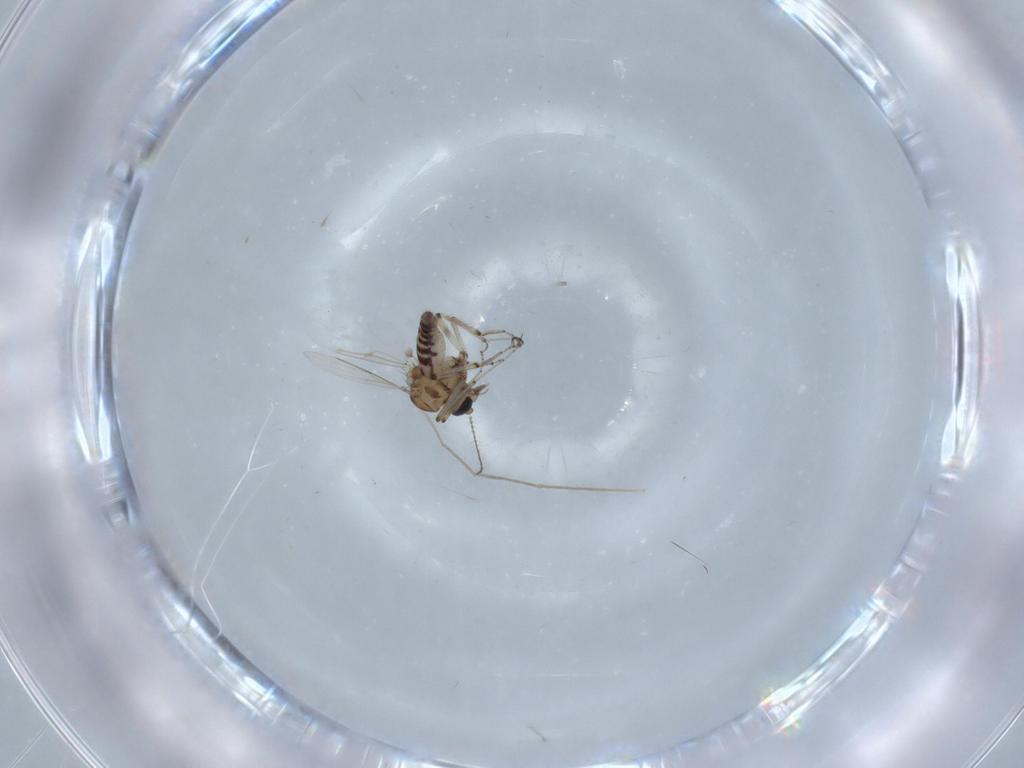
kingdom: Animalia
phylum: Arthropoda
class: Insecta
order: Diptera
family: Ceratopogonidae
